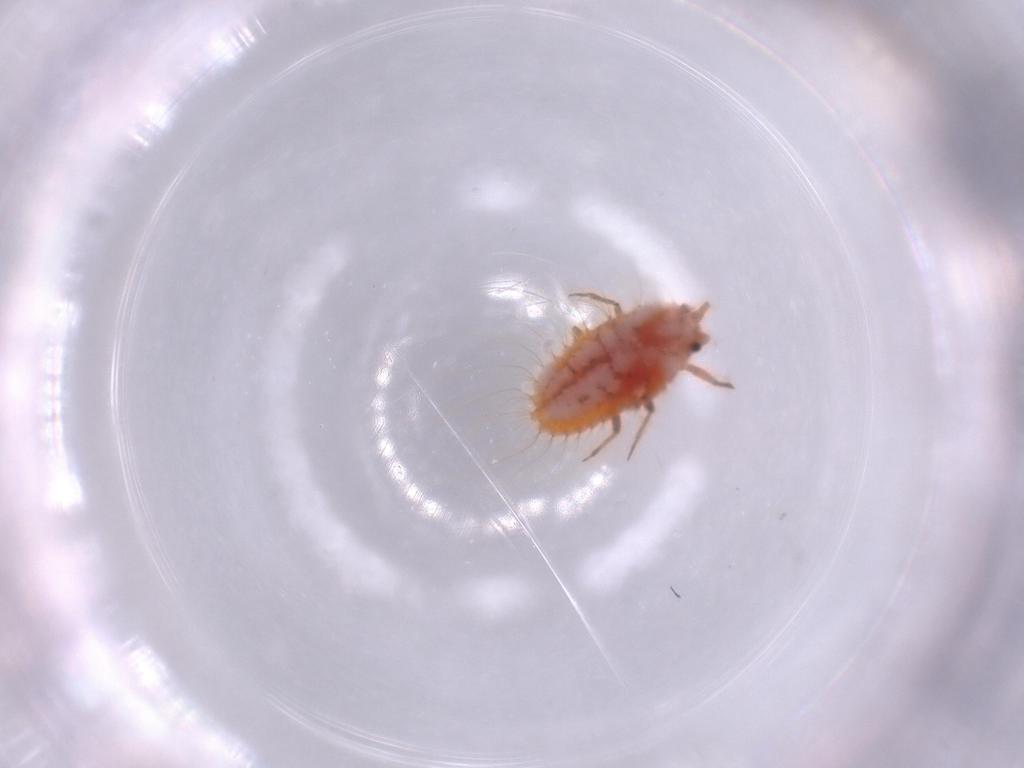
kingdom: Animalia
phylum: Arthropoda
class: Insecta
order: Hemiptera
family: Coccoidea_incertae_sedis
